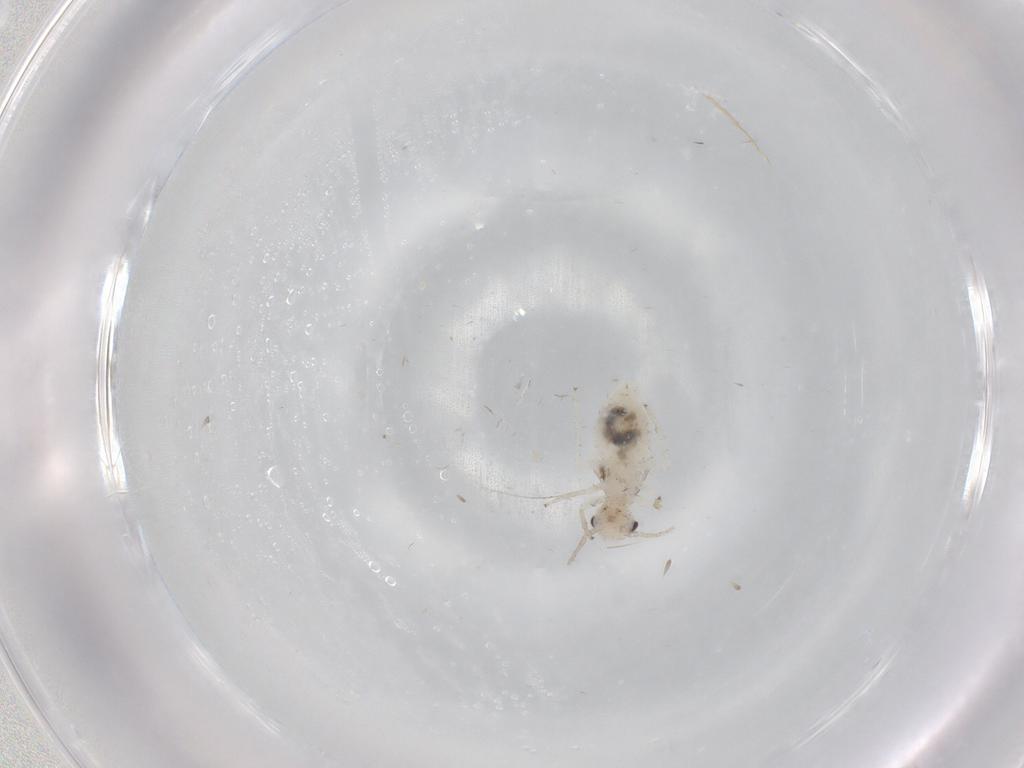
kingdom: Animalia
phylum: Arthropoda
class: Insecta
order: Psocodea
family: Caeciliusidae
